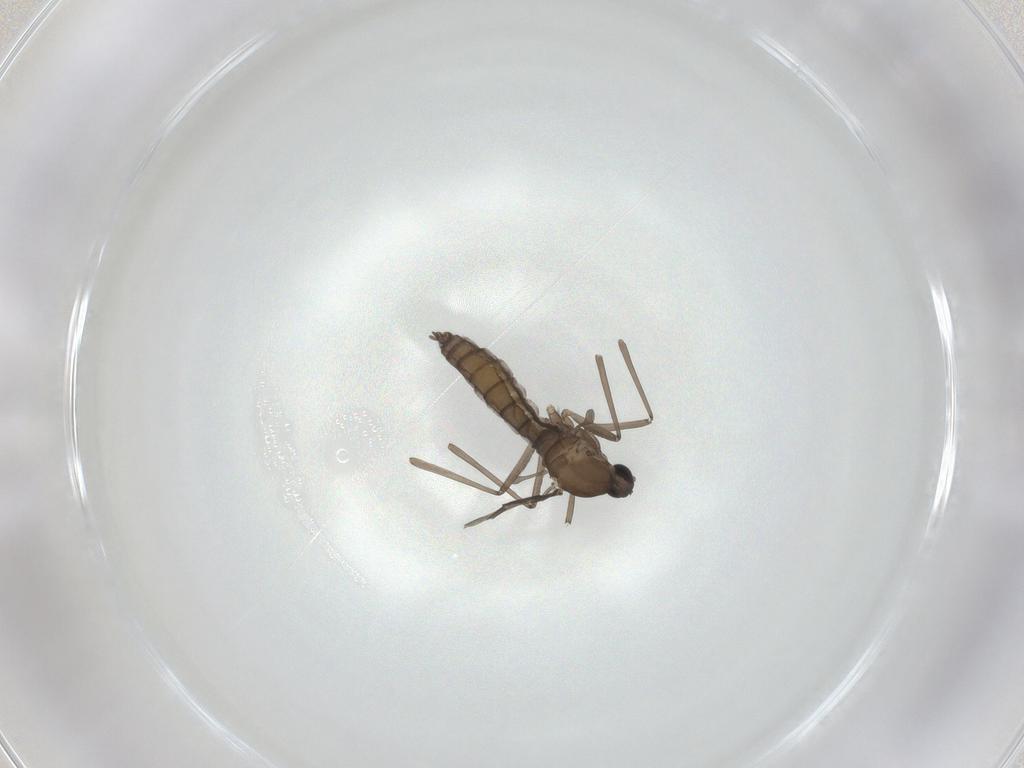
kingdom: Animalia
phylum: Arthropoda
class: Insecta
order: Diptera
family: Cecidomyiidae
